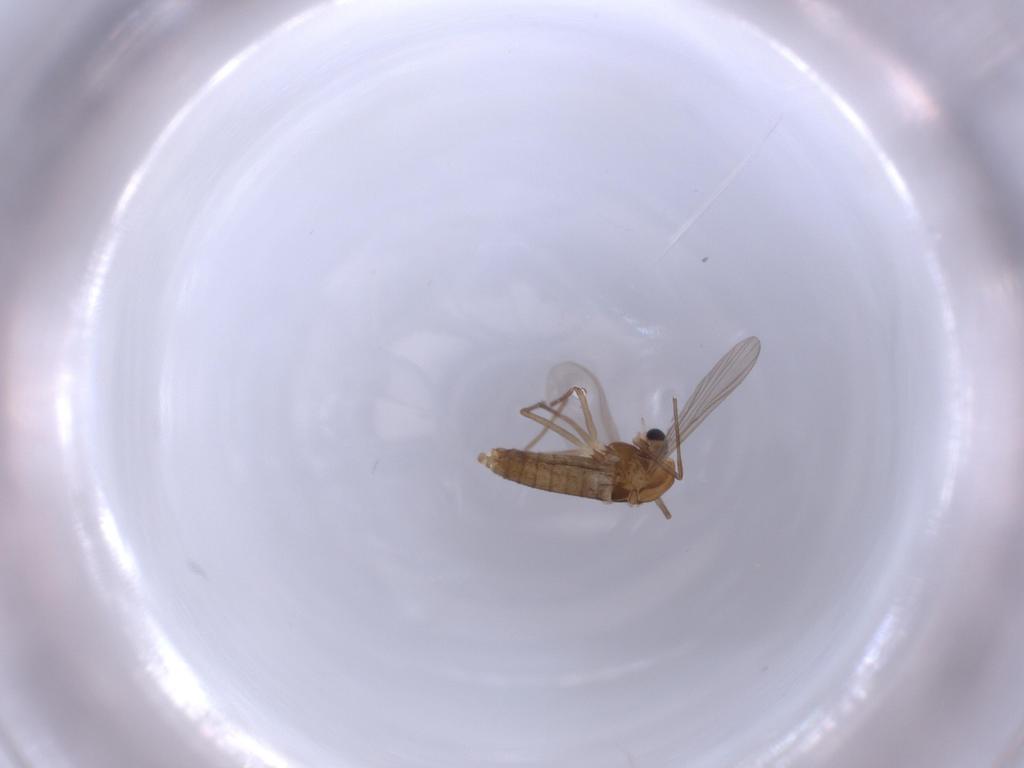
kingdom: Animalia
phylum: Arthropoda
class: Insecta
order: Diptera
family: Chironomidae
